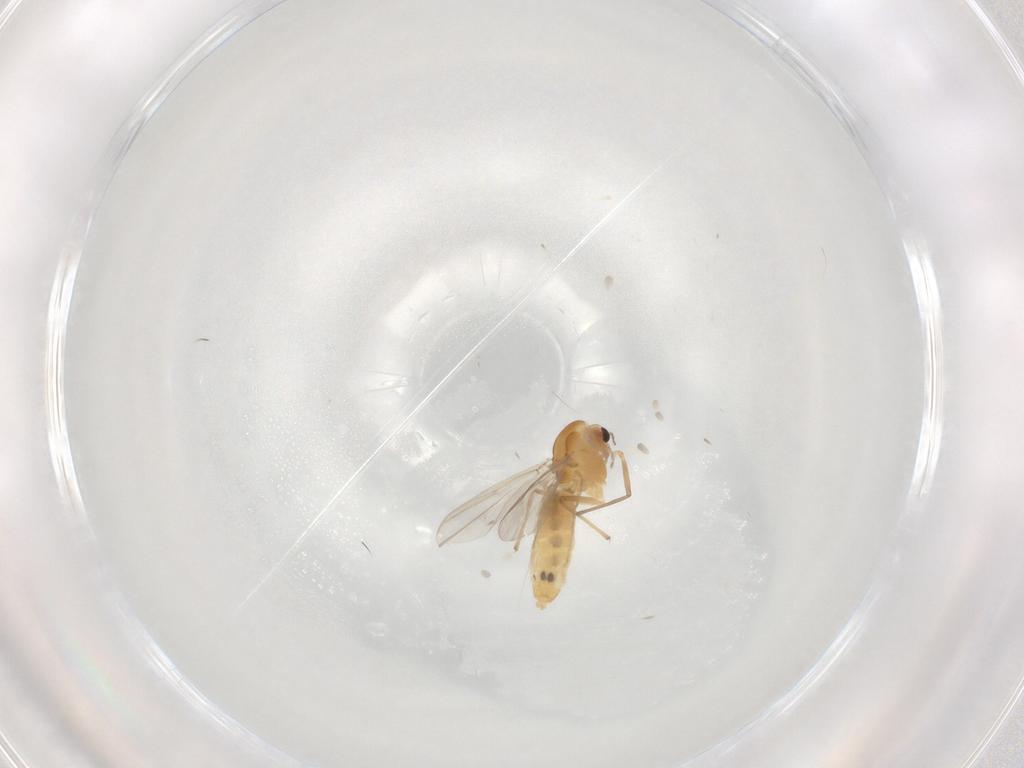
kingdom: Animalia
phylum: Arthropoda
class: Insecta
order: Diptera
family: Chironomidae
